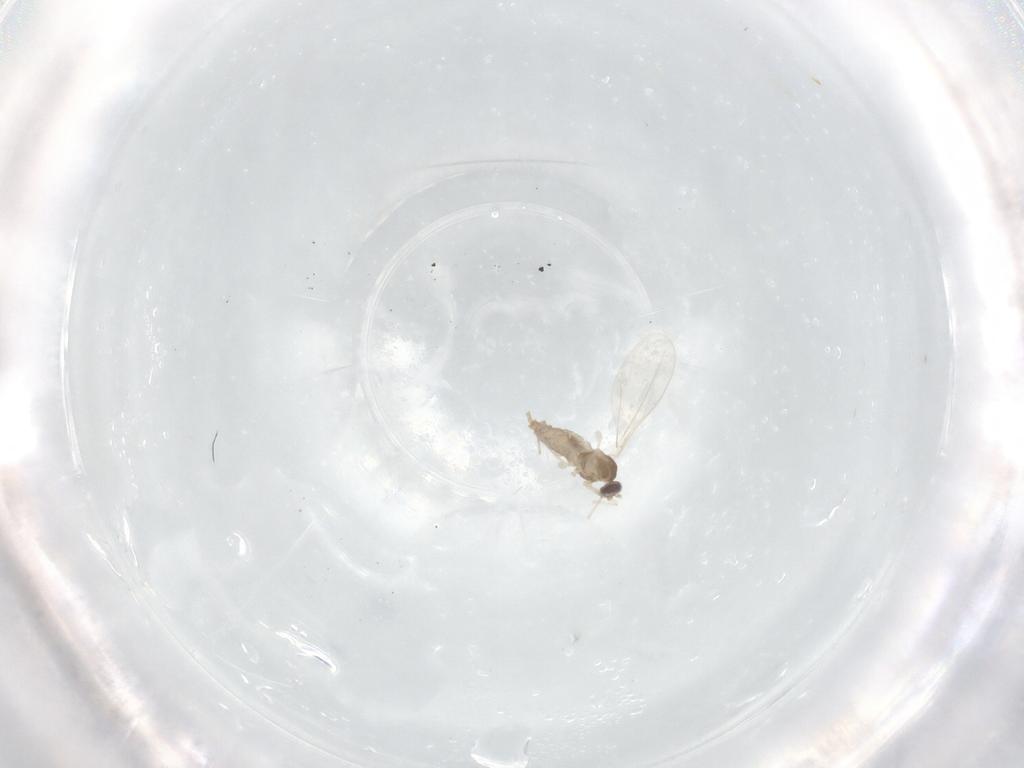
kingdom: Animalia
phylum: Arthropoda
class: Insecta
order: Diptera
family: Cecidomyiidae
